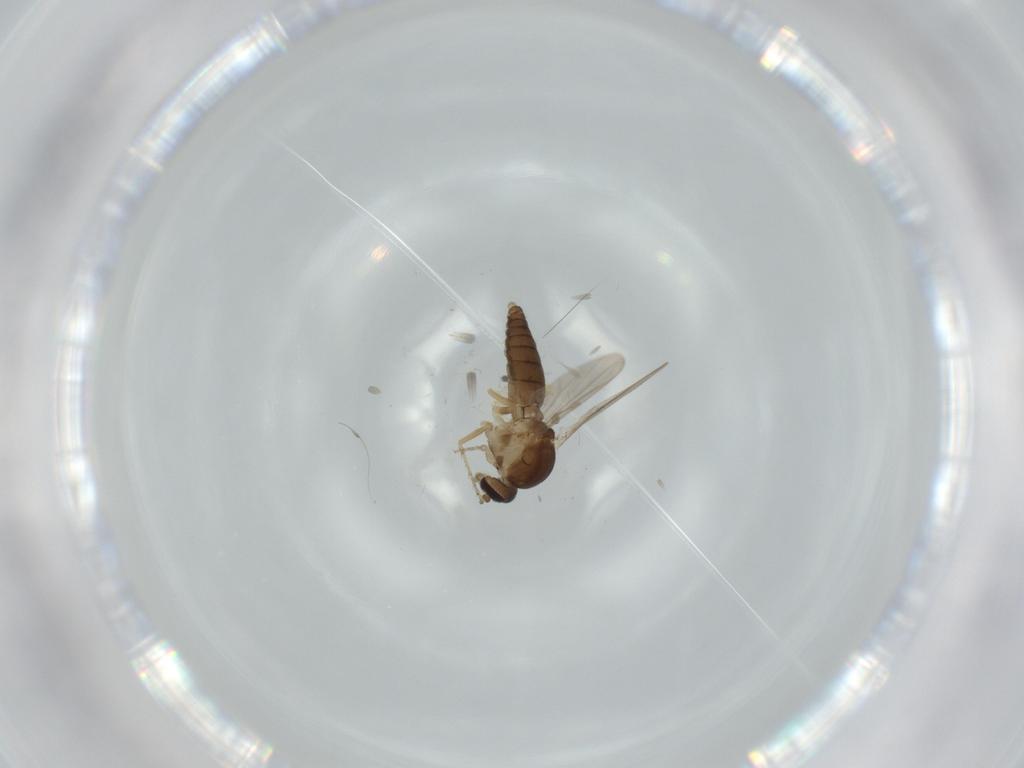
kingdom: Animalia
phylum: Arthropoda
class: Insecta
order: Diptera
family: Ceratopogonidae
